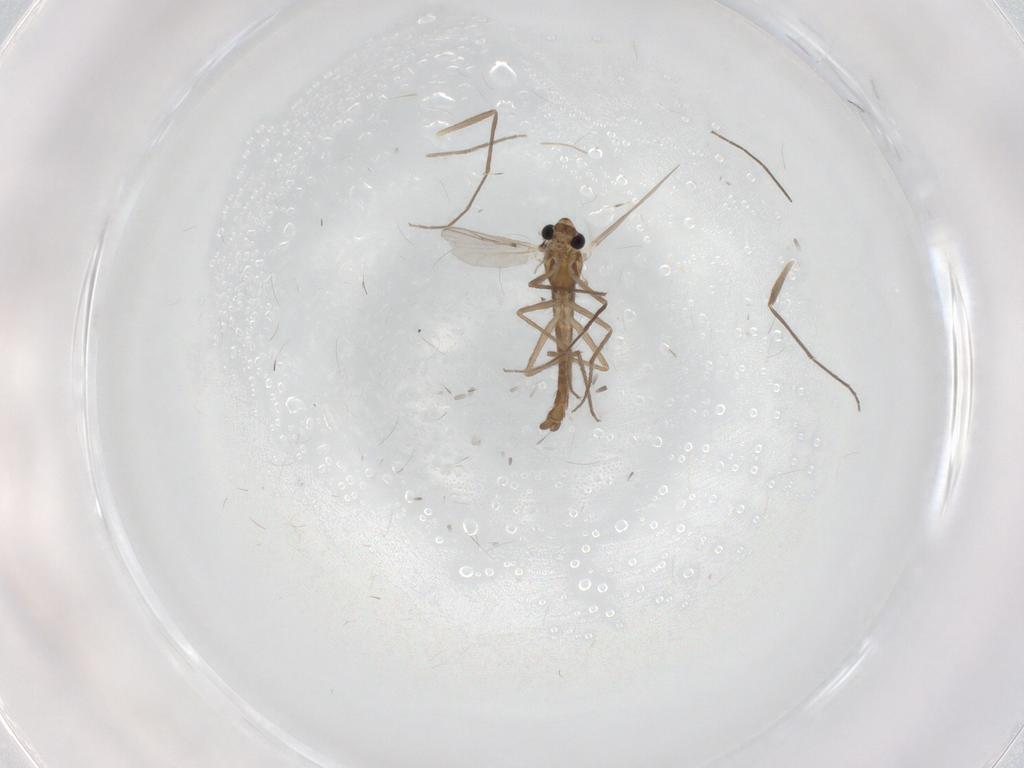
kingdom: Animalia
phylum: Arthropoda
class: Insecta
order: Diptera
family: Chironomidae
